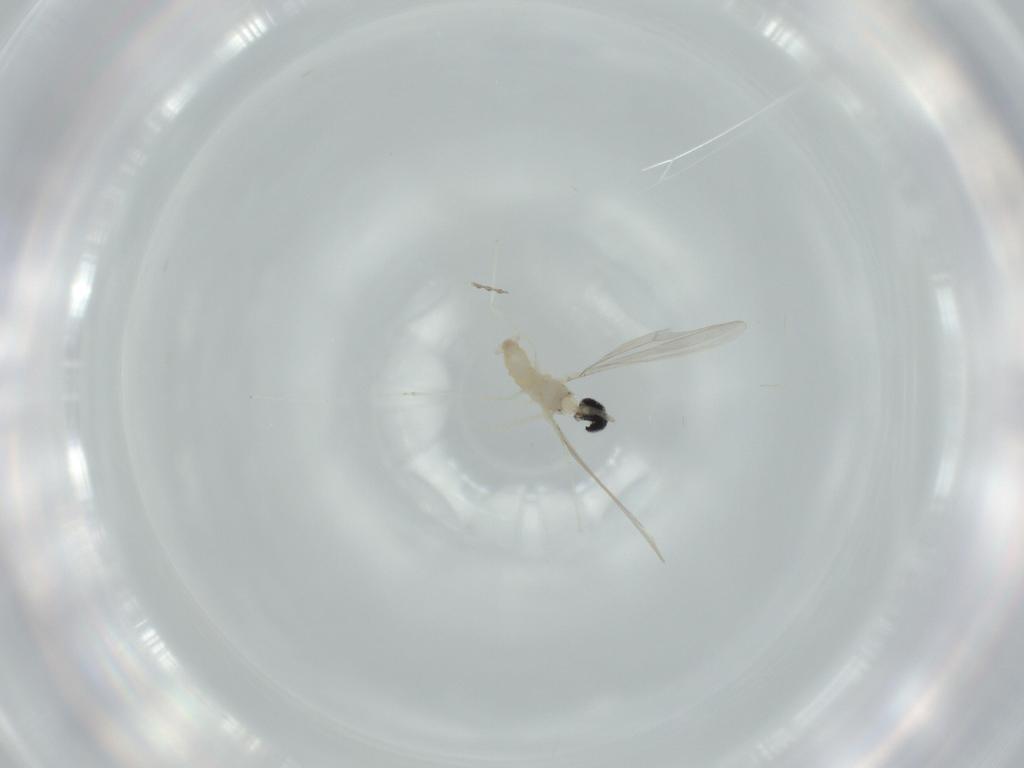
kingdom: Animalia
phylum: Arthropoda
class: Insecta
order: Diptera
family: Cecidomyiidae
